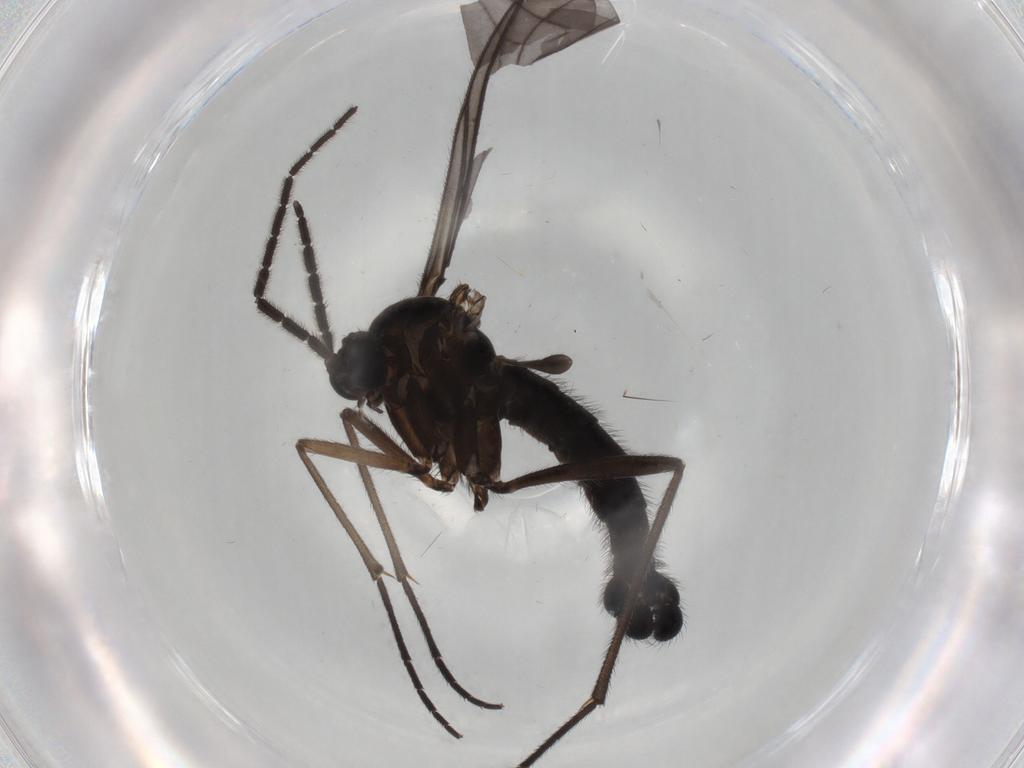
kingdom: Animalia
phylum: Arthropoda
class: Insecta
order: Diptera
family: Sciaridae
